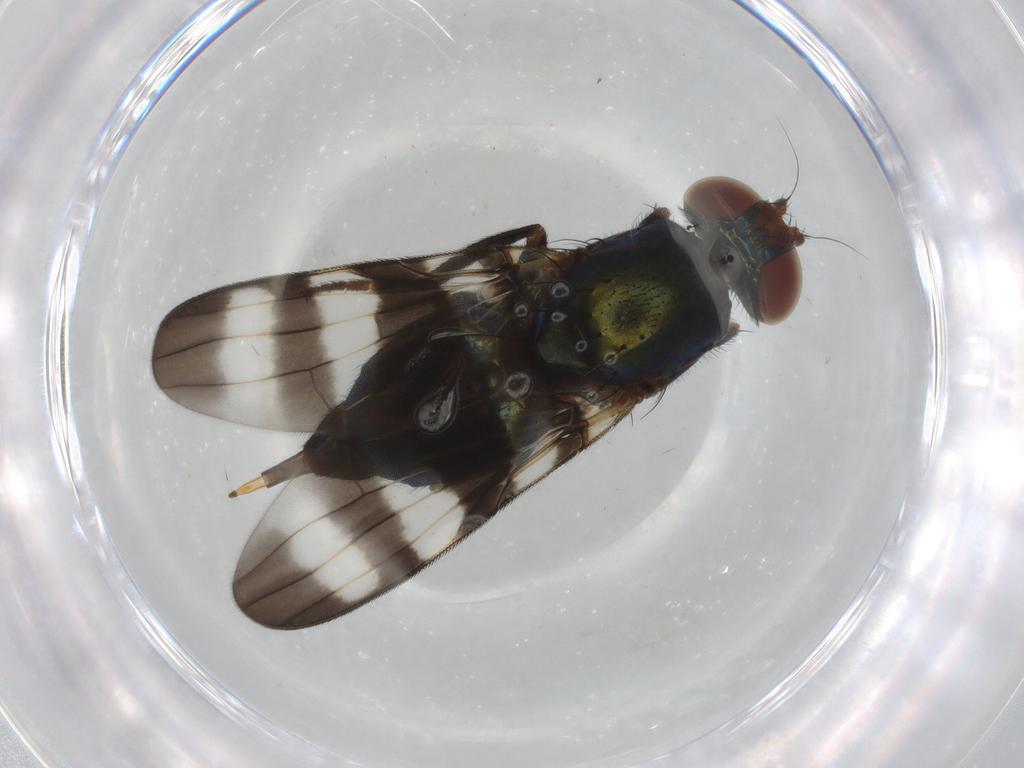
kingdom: Animalia
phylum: Arthropoda
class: Insecta
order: Diptera
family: Ulidiidae
